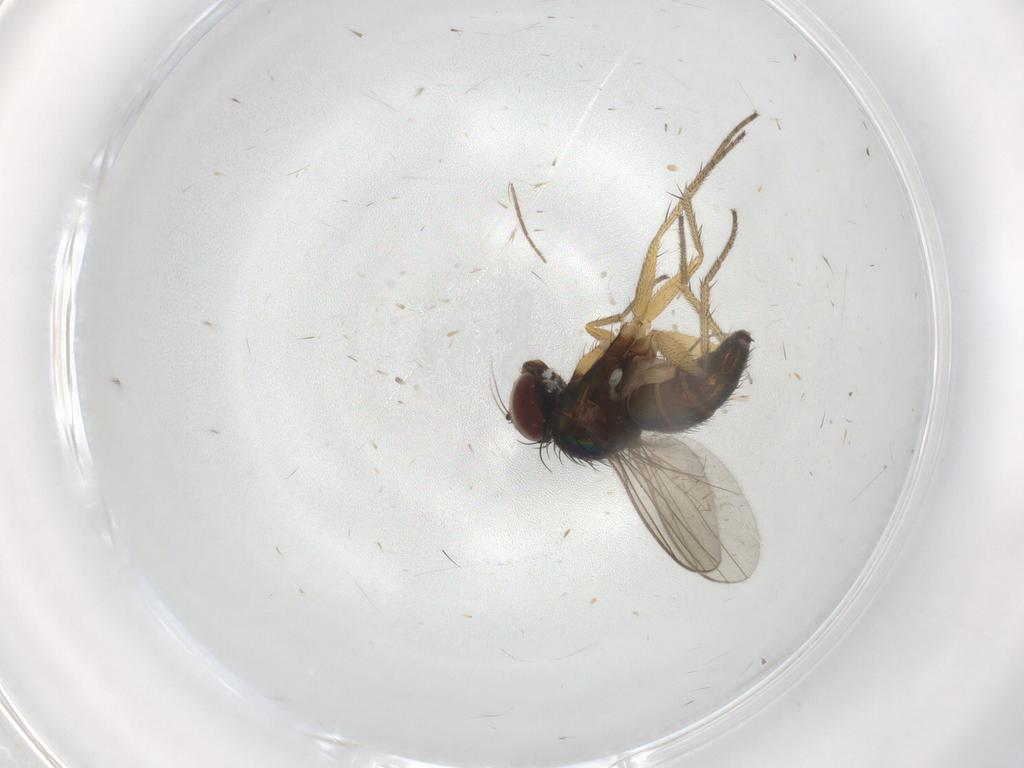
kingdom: Animalia
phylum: Arthropoda
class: Insecta
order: Diptera
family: Chironomidae
